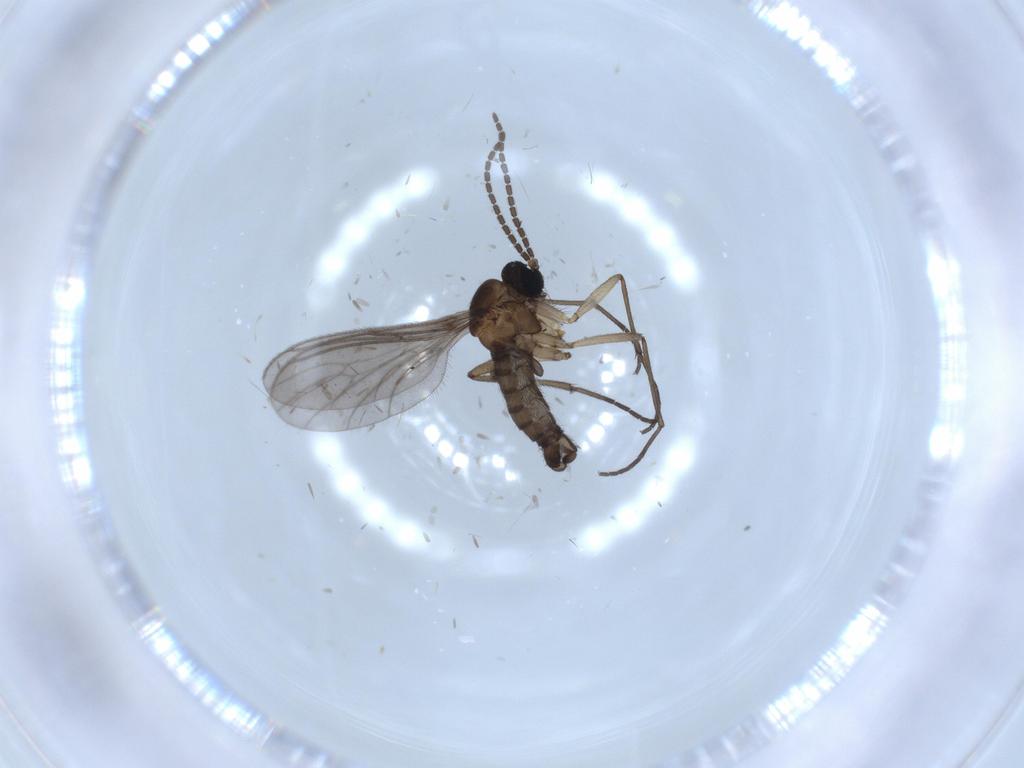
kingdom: Animalia
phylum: Arthropoda
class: Insecta
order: Diptera
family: Sciaridae
